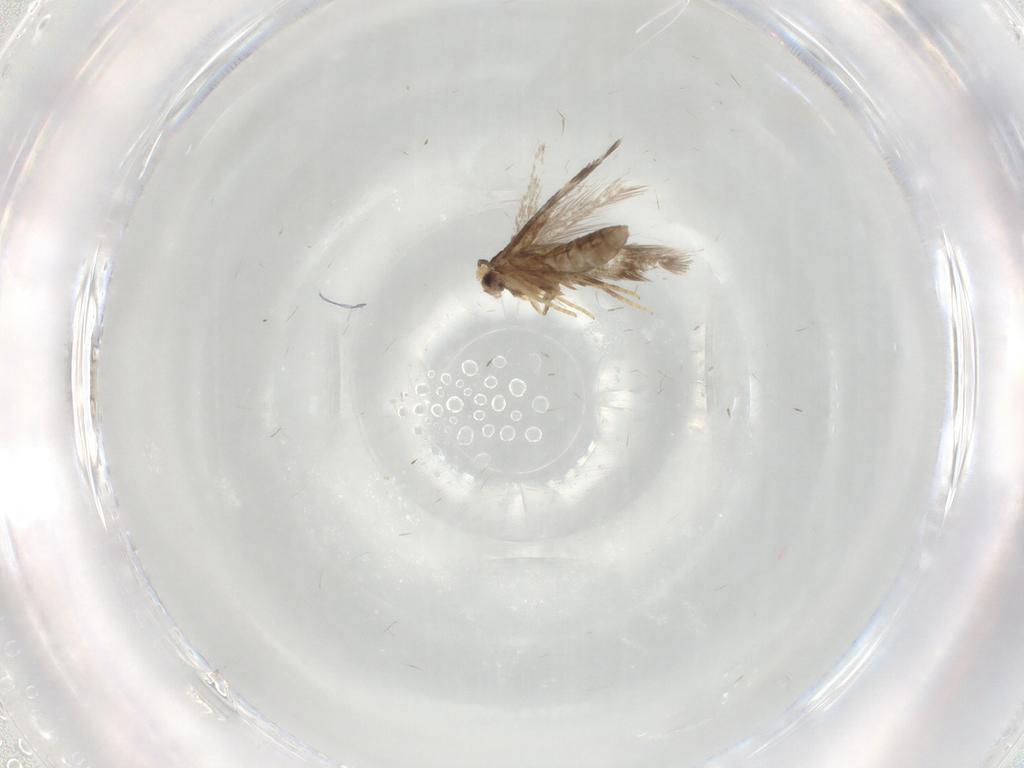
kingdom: Animalia
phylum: Arthropoda
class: Insecta
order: Lepidoptera
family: Nepticulidae
